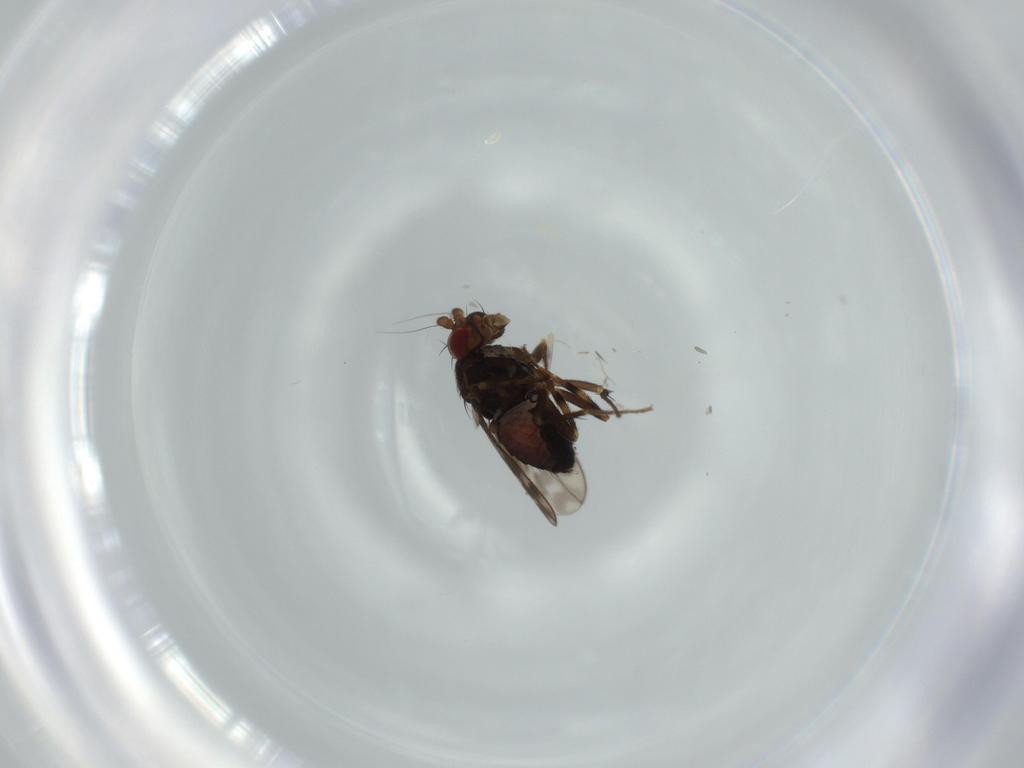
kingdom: Animalia
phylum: Arthropoda
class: Insecta
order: Diptera
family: Sphaeroceridae
